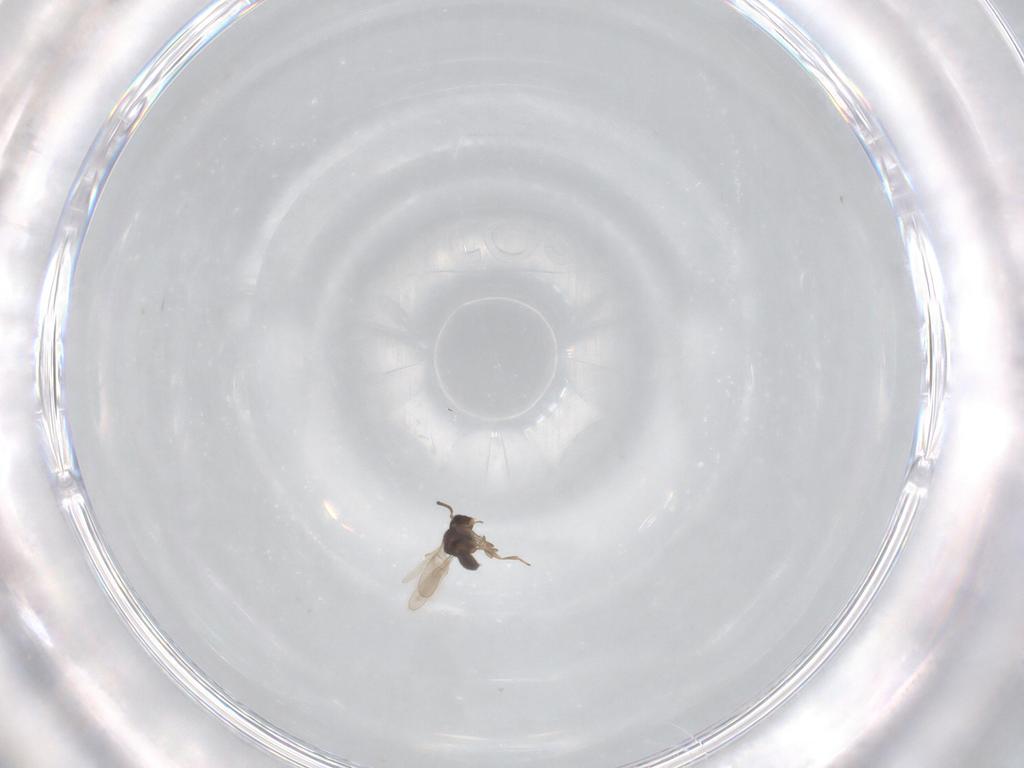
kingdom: Animalia
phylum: Arthropoda
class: Insecta
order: Hymenoptera
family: Scelionidae
